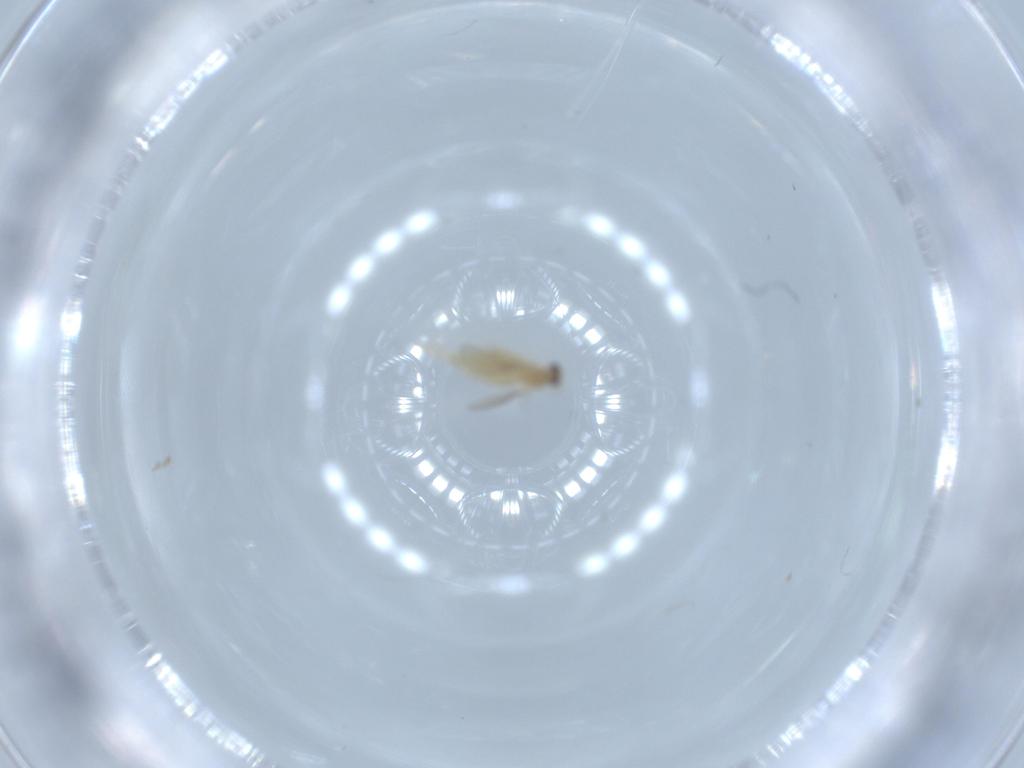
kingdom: Animalia
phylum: Arthropoda
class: Insecta
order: Diptera
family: Cecidomyiidae
